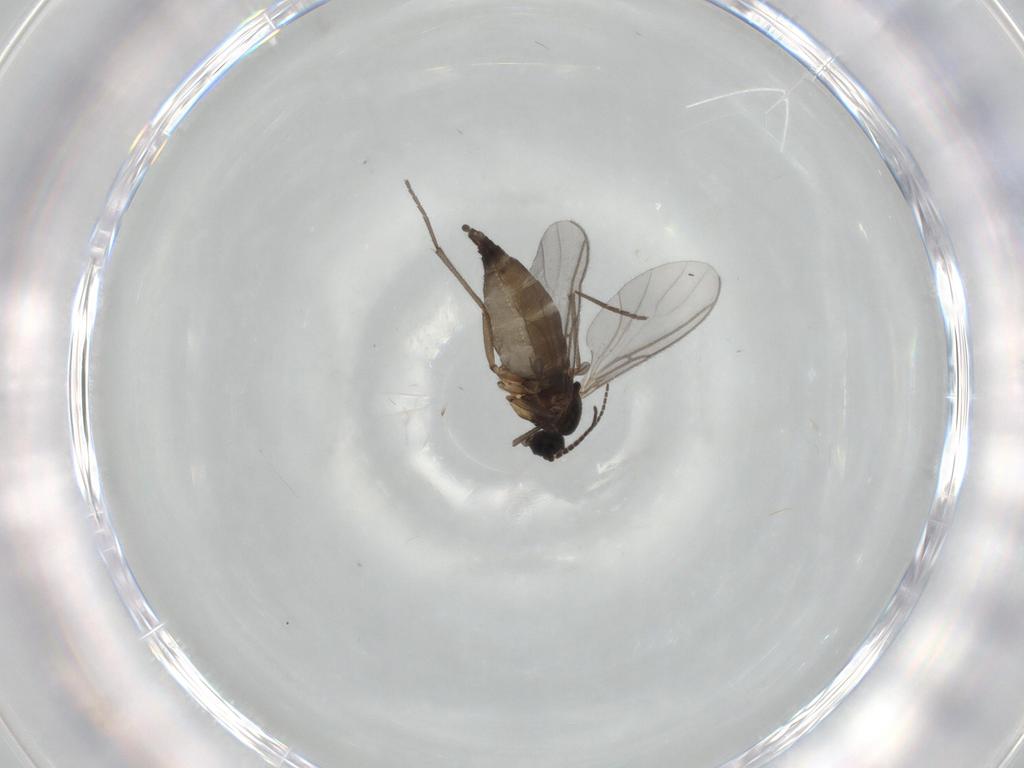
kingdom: Animalia
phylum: Arthropoda
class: Insecta
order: Diptera
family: Sciaridae
